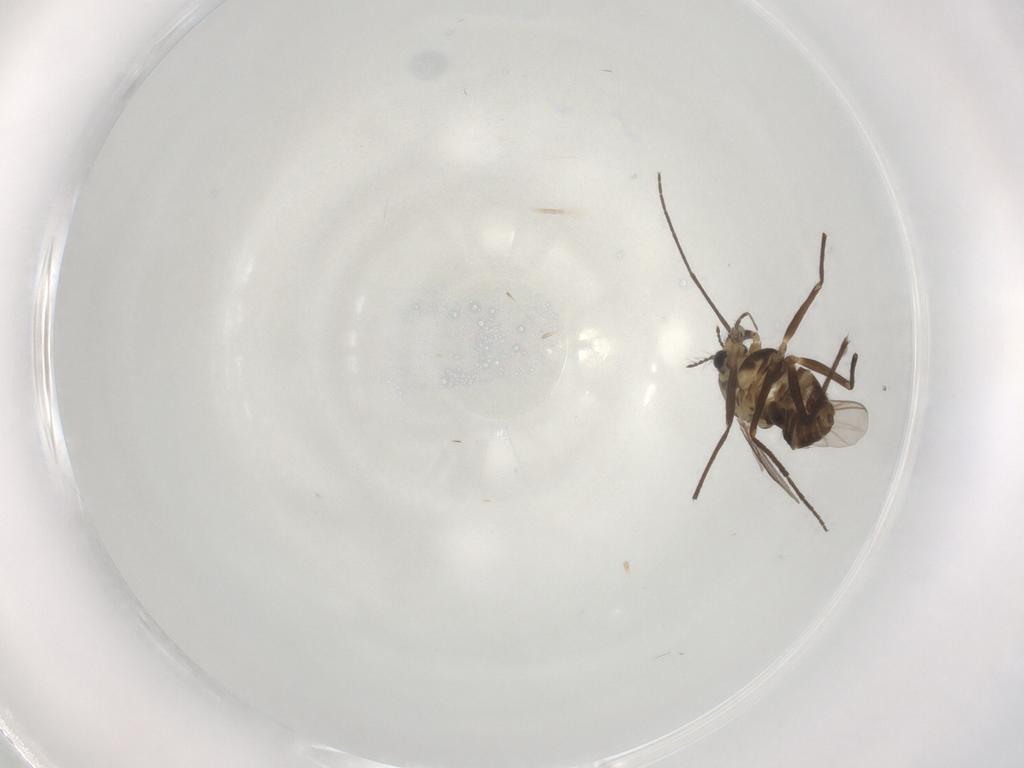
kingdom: Animalia
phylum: Arthropoda
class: Insecta
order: Diptera
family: Cecidomyiidae
